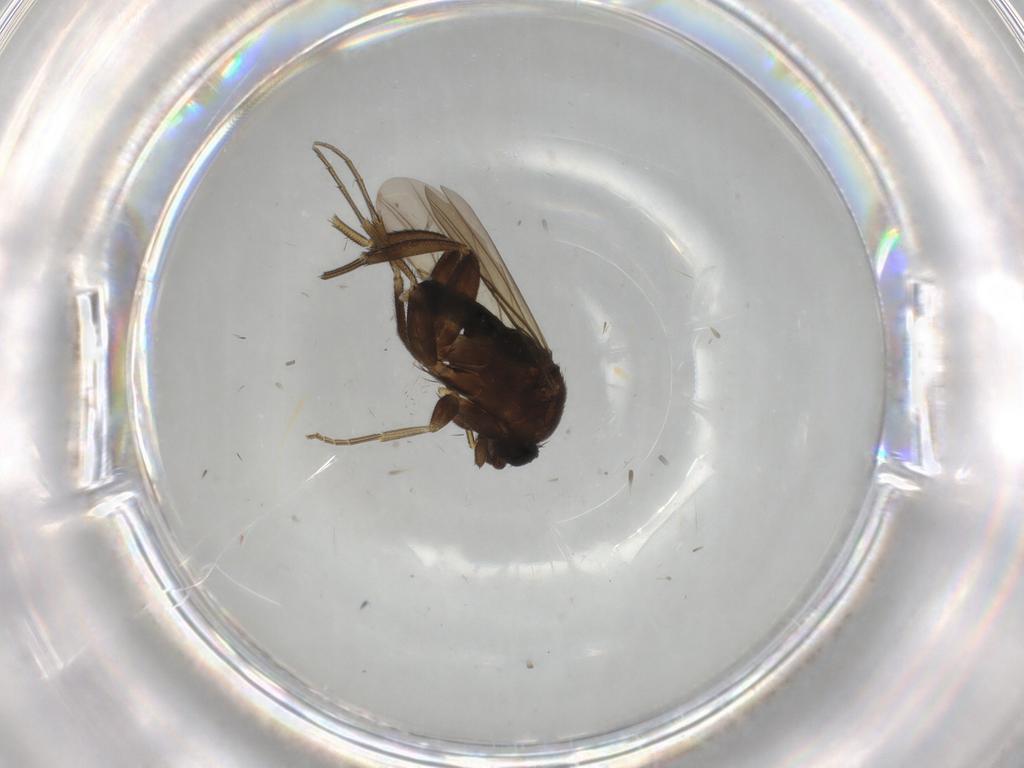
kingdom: Animalia
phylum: Arthropoda
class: Insecta
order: Diptera
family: Phoridae
